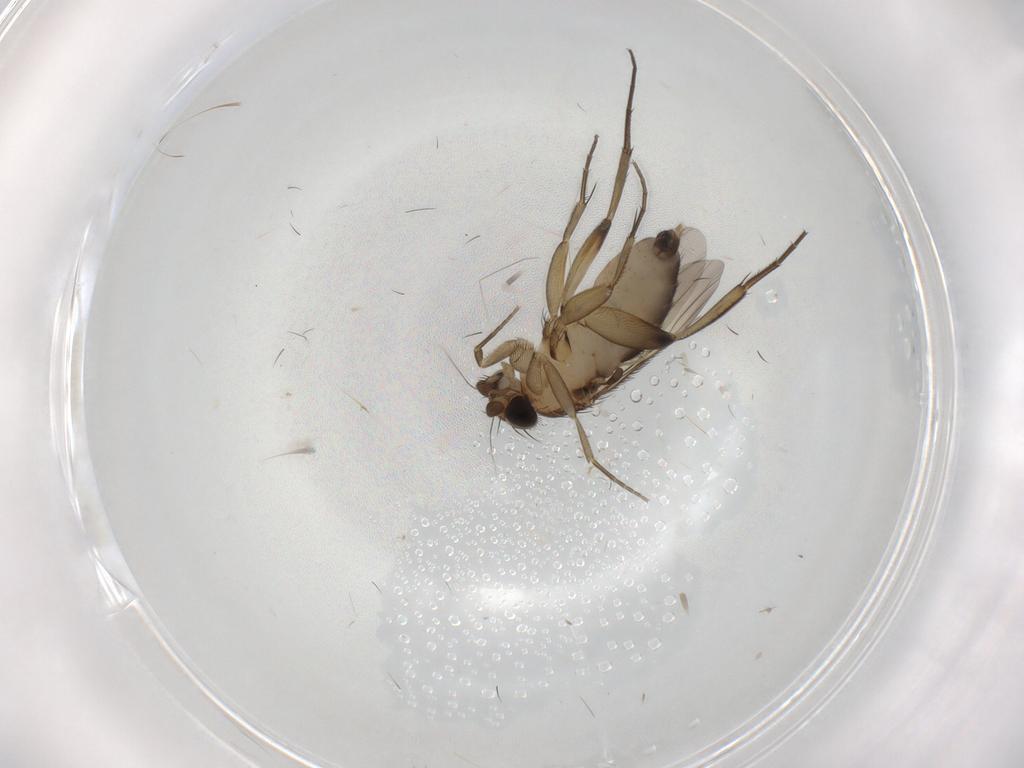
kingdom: Animalia
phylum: Arthropoda
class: Insecta
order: Diptera
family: Phoridae
